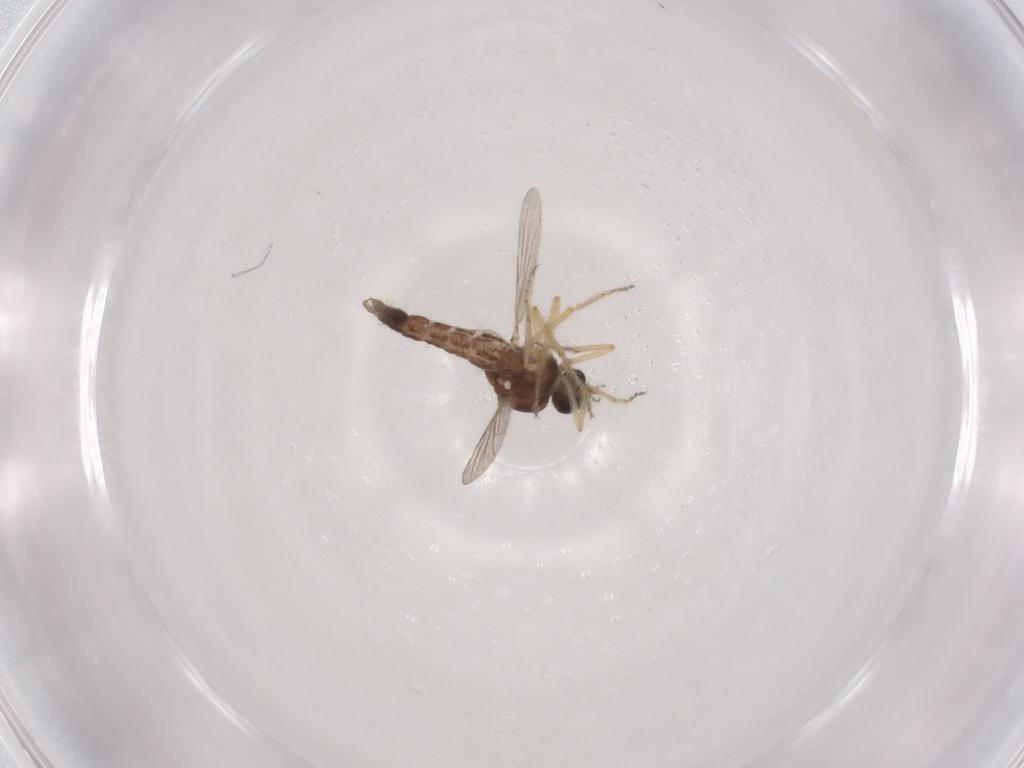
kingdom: Animalia
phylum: Arthropoda
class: Insecta
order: Diptera
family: Ceratopogonidae
